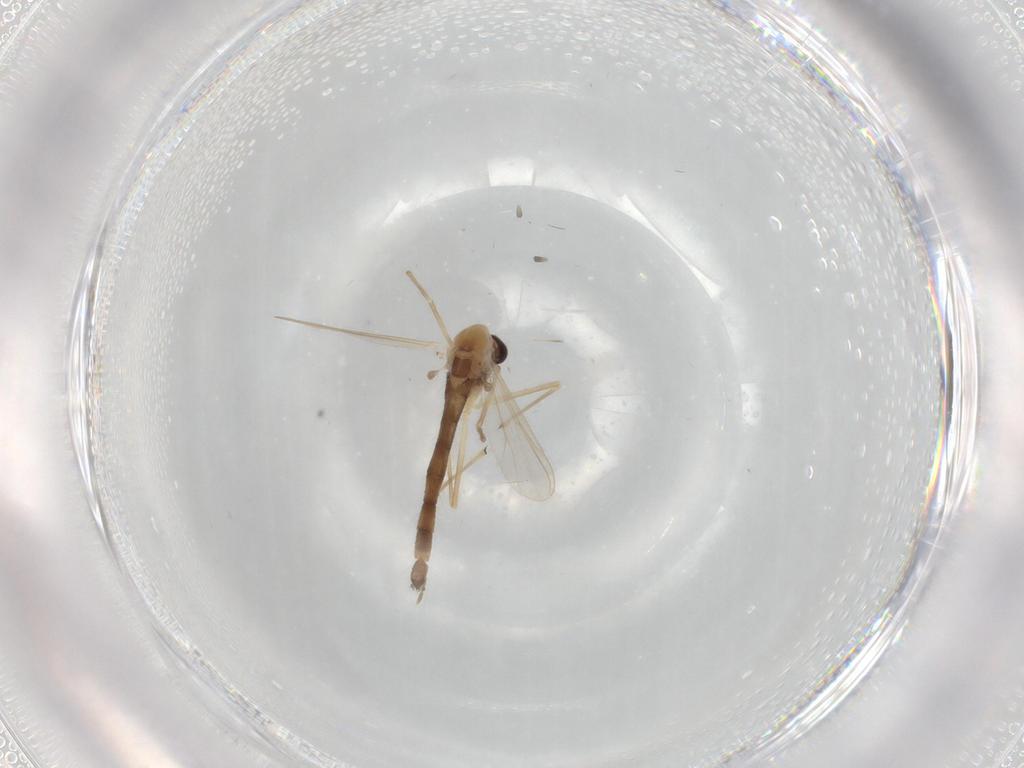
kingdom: Animalia
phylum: Arthropoda
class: Insecta
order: Diptera
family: Chironomidae
